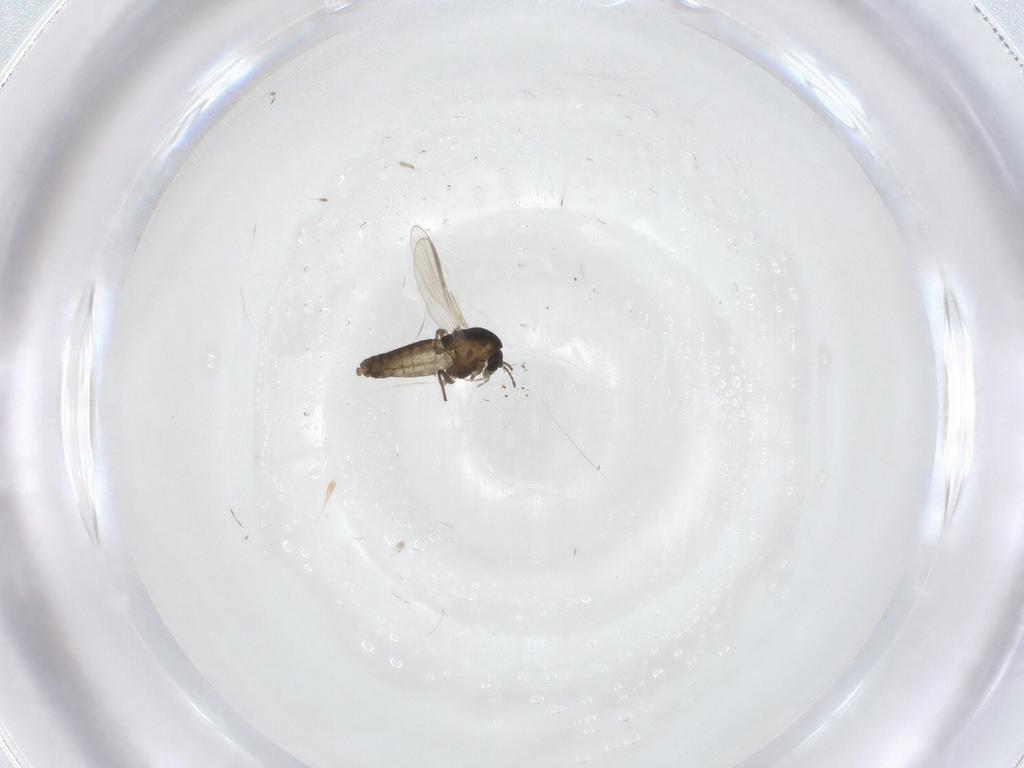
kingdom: Animalia
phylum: Arthropoda
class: Insecta
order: Diptera
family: Chironomidae
